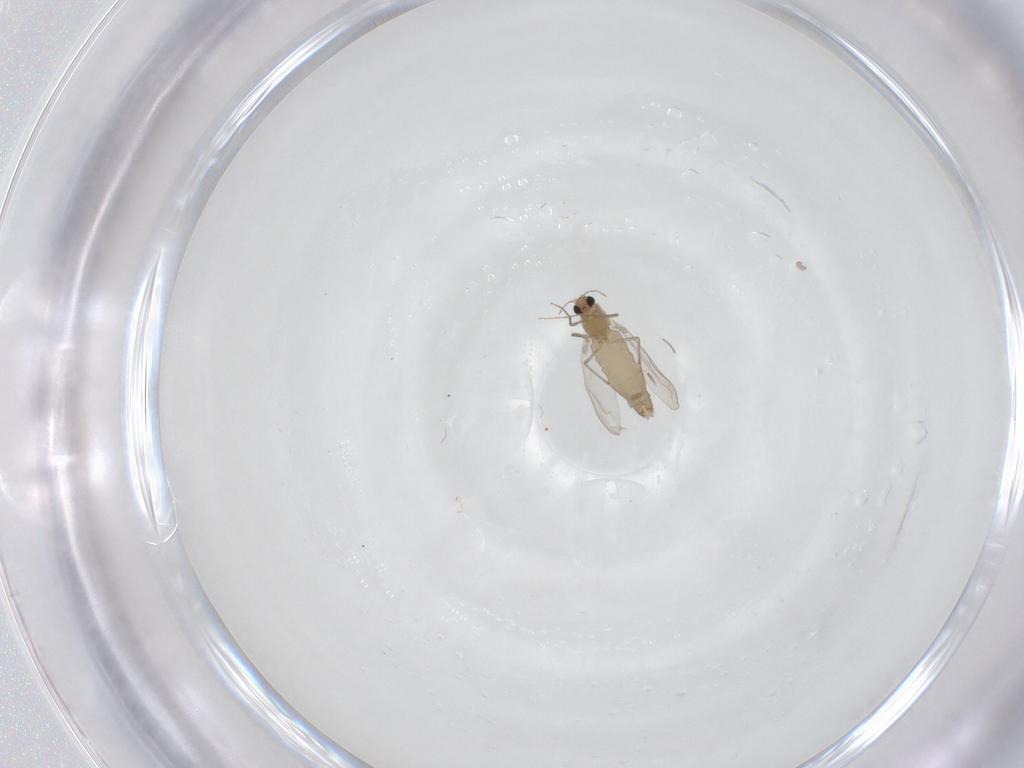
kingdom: Animalia
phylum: Arthropoda
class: Insecta
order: Diptera
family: Chironomidae
